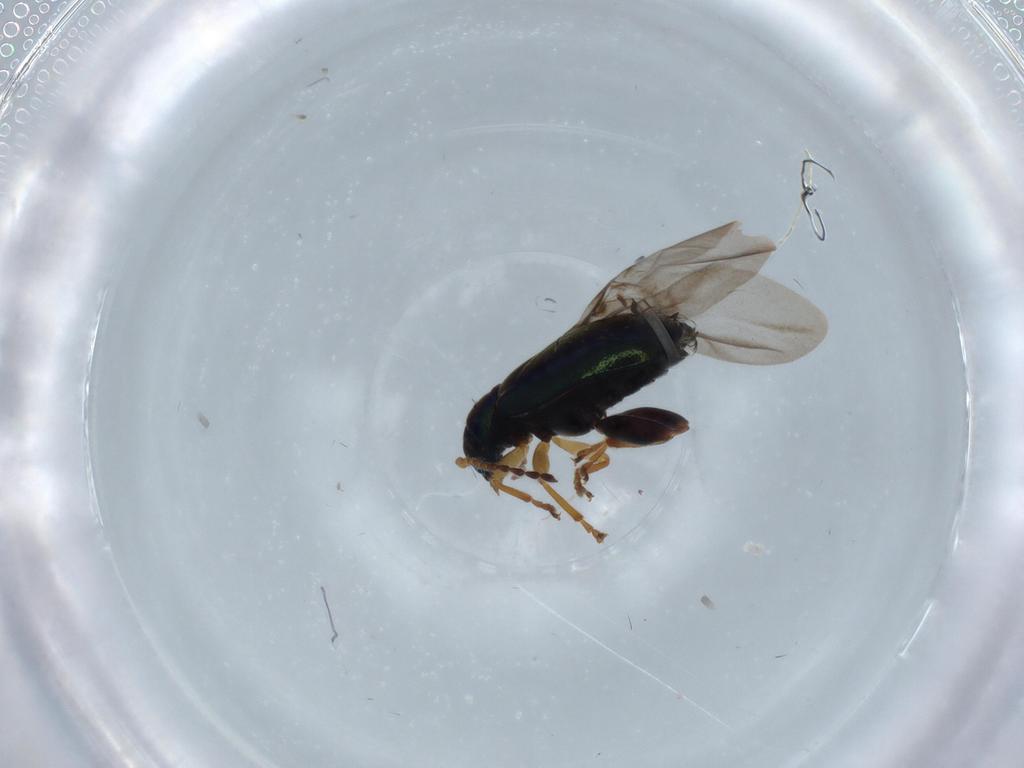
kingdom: Animalia
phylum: Arthropoda
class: Insecta
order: Coleoptera
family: Chrysomelidae
